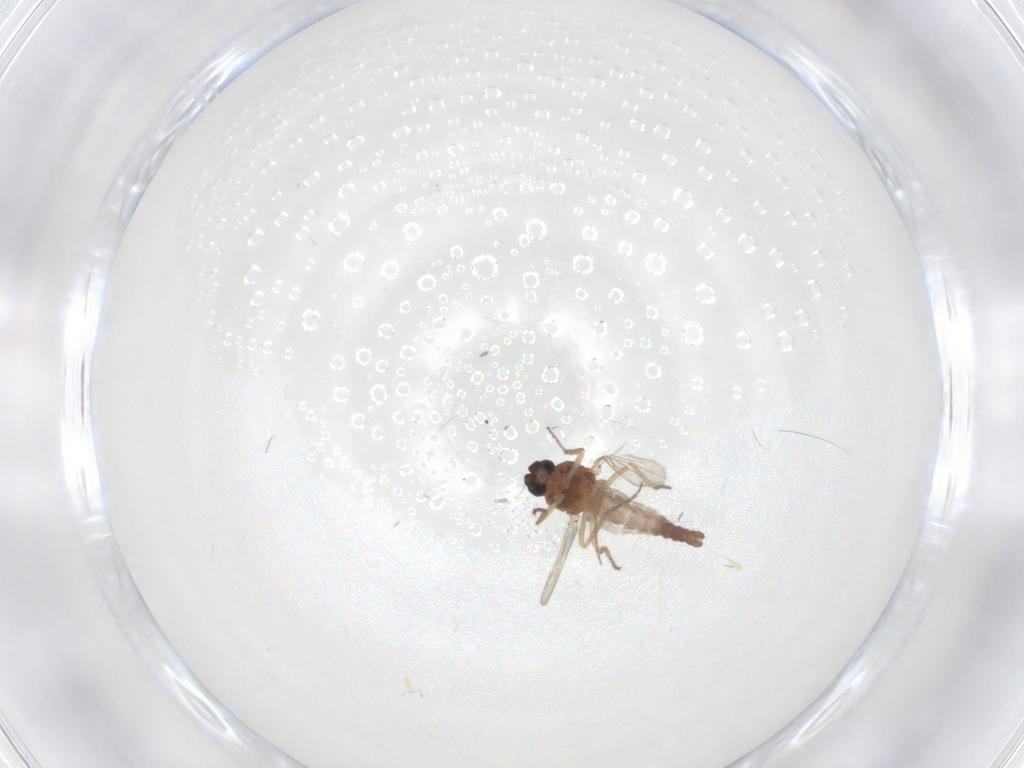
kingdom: Animalia
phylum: Arthropoda
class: Insecta
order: Diptera
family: Ceratopogonidae
